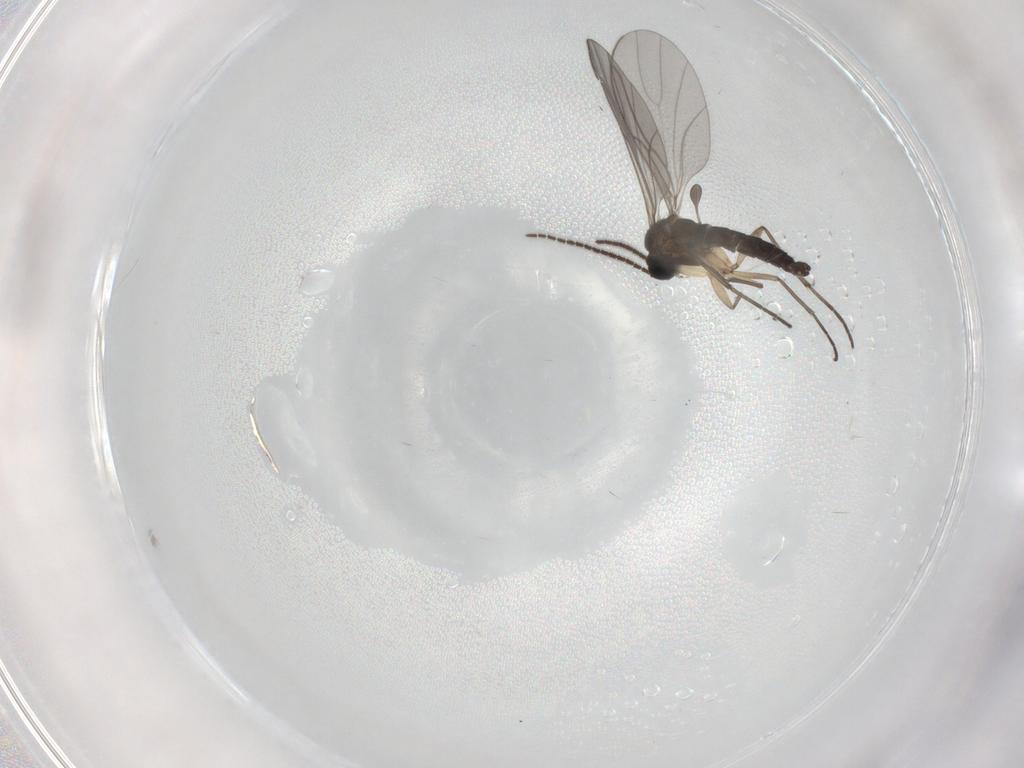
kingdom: Animalia
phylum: Arthropoda
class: Insecta
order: Diptera
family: Sciaridae
